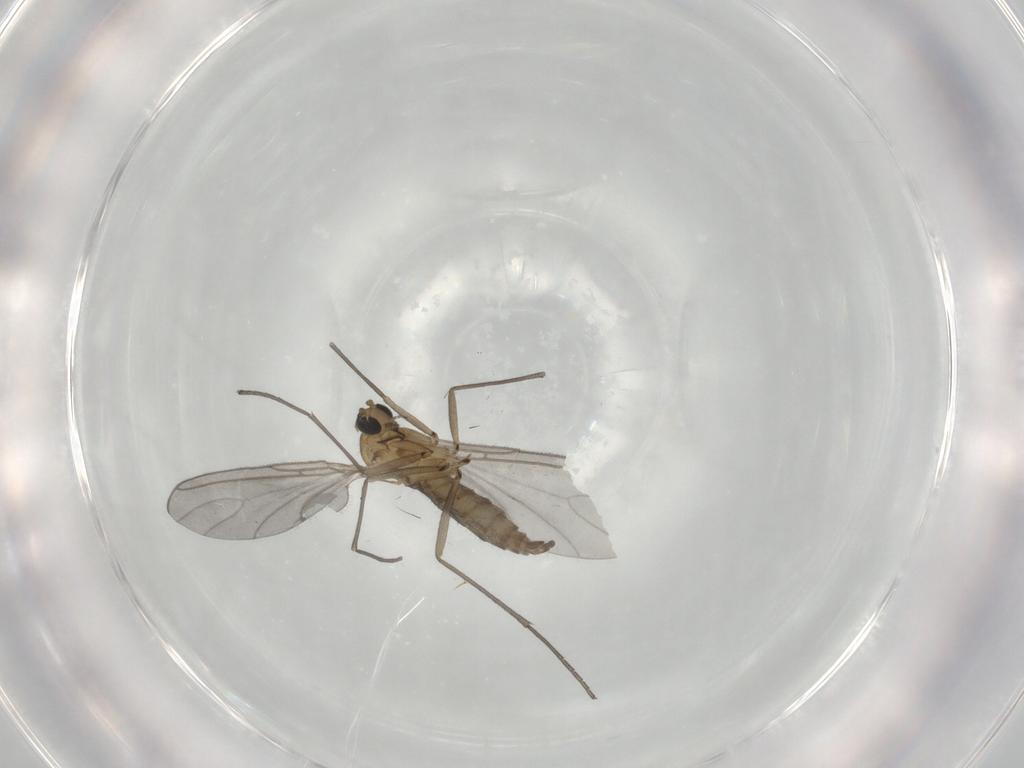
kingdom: Animalia
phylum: Arthropoda
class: Insecta
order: Diptera
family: Sciaridae
